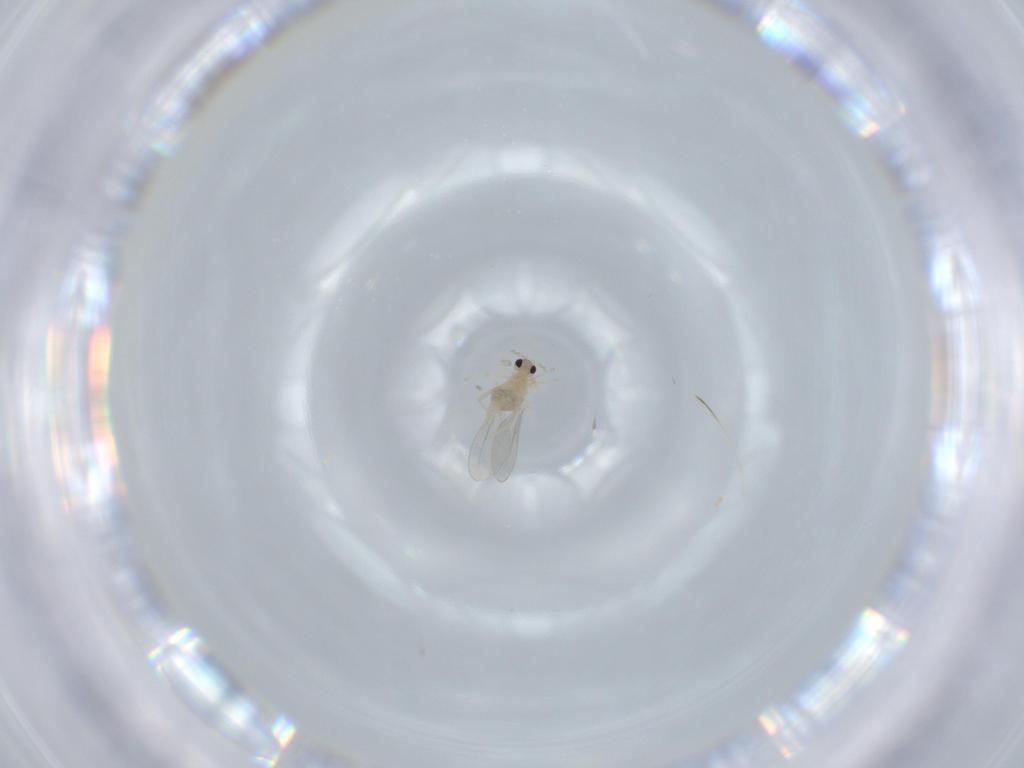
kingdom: Animalia
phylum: Arthropoda
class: Insecta
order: Diptera
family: Cecidomyiidae
